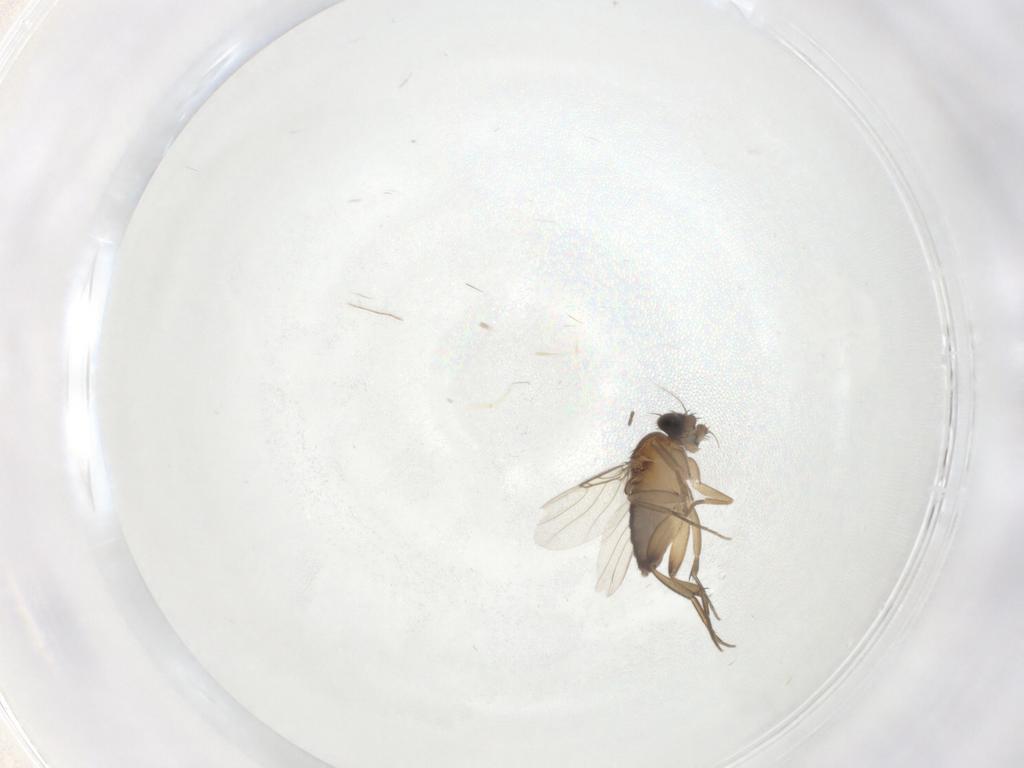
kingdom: Animalia
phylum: Arthropoda
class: Insecta
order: Diptera
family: Phoridae
